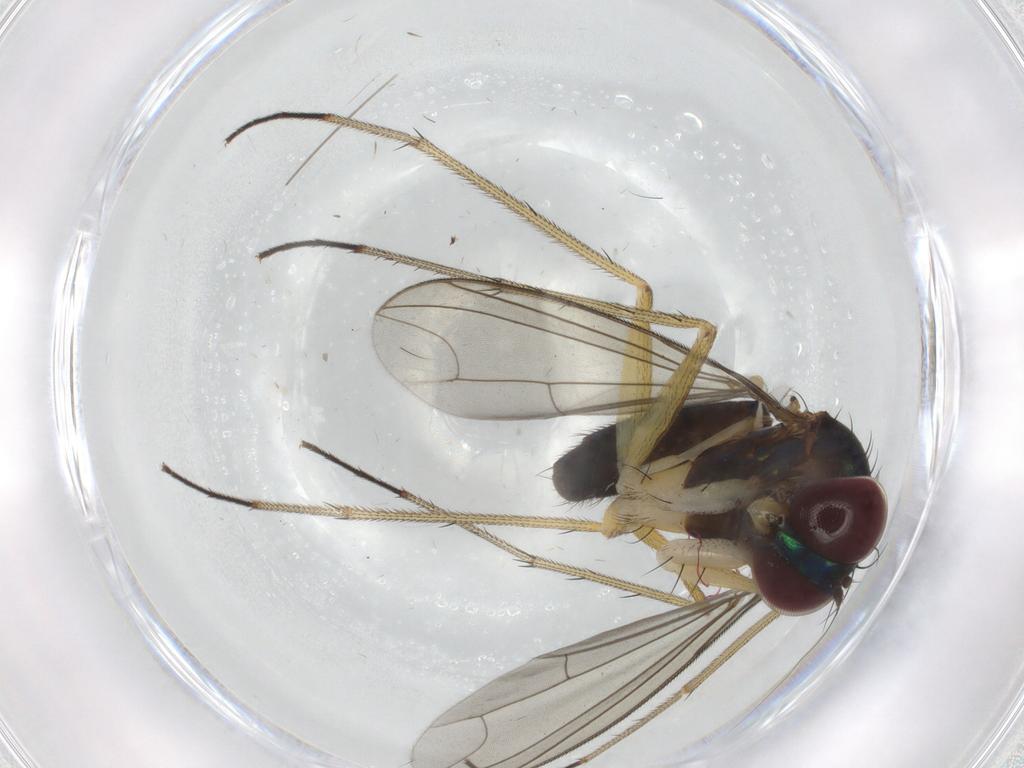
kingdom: Animalia
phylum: Arthropoda
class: Insecta
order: Diptera
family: Dolichopodidae
